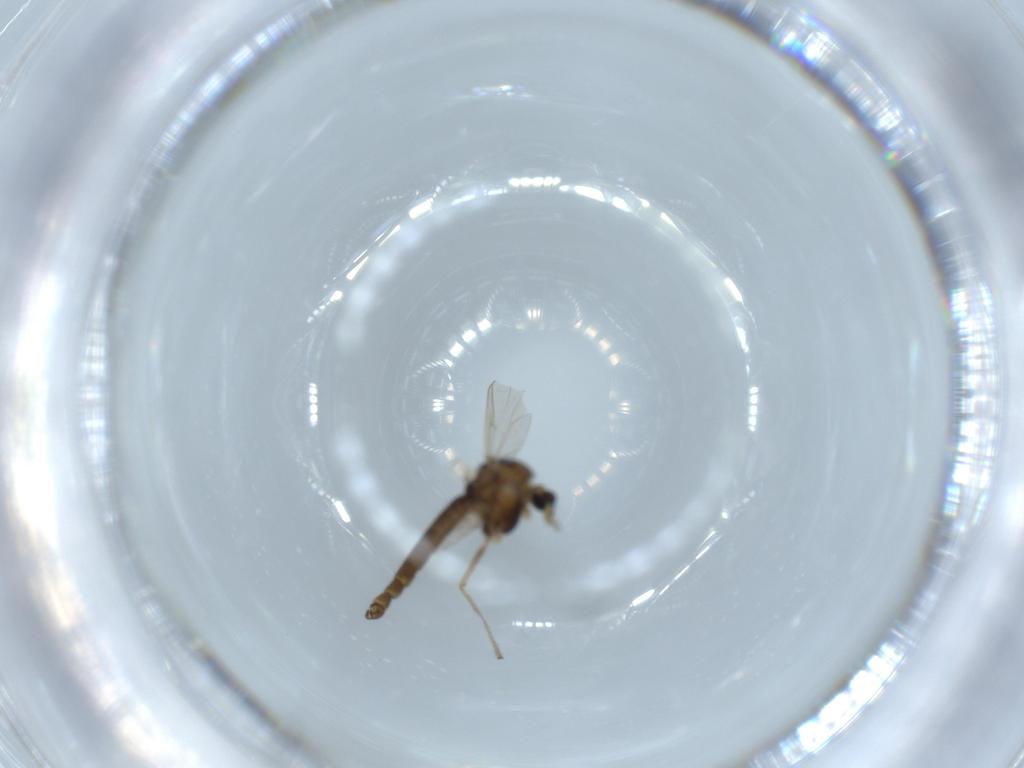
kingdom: Animalia
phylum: Arthropoda
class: Insecta
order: Diptera
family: Chironomidae
